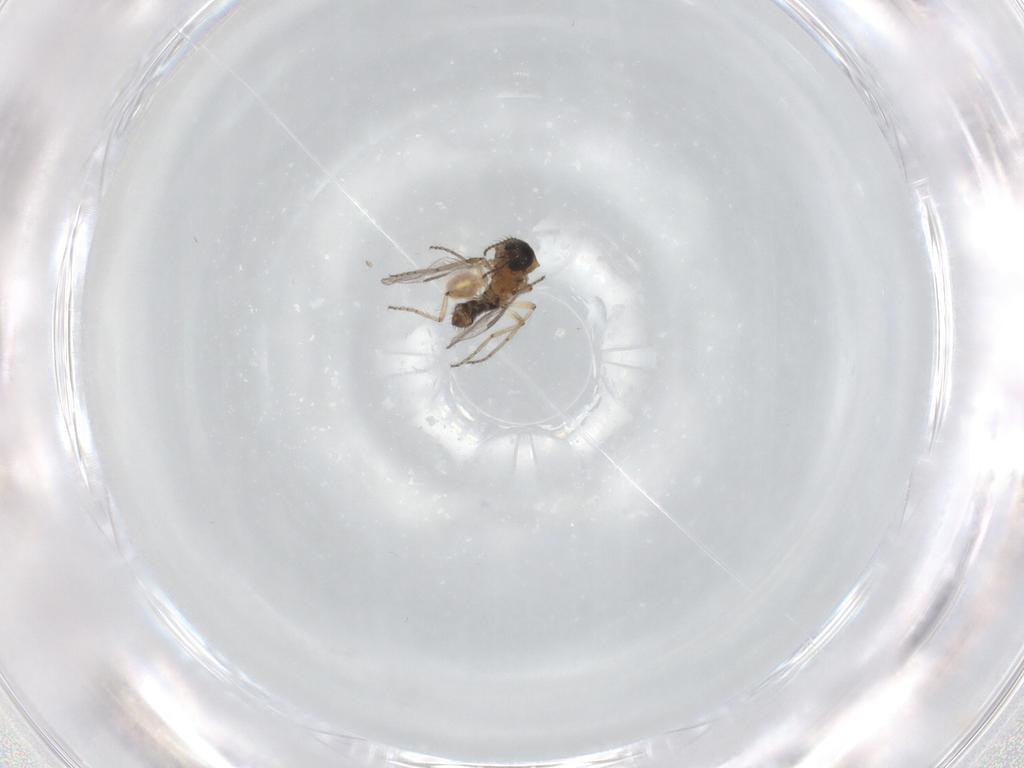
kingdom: Animalia
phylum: Arthropoda
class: Insecta
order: Diptera
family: Ceratopogonidae
